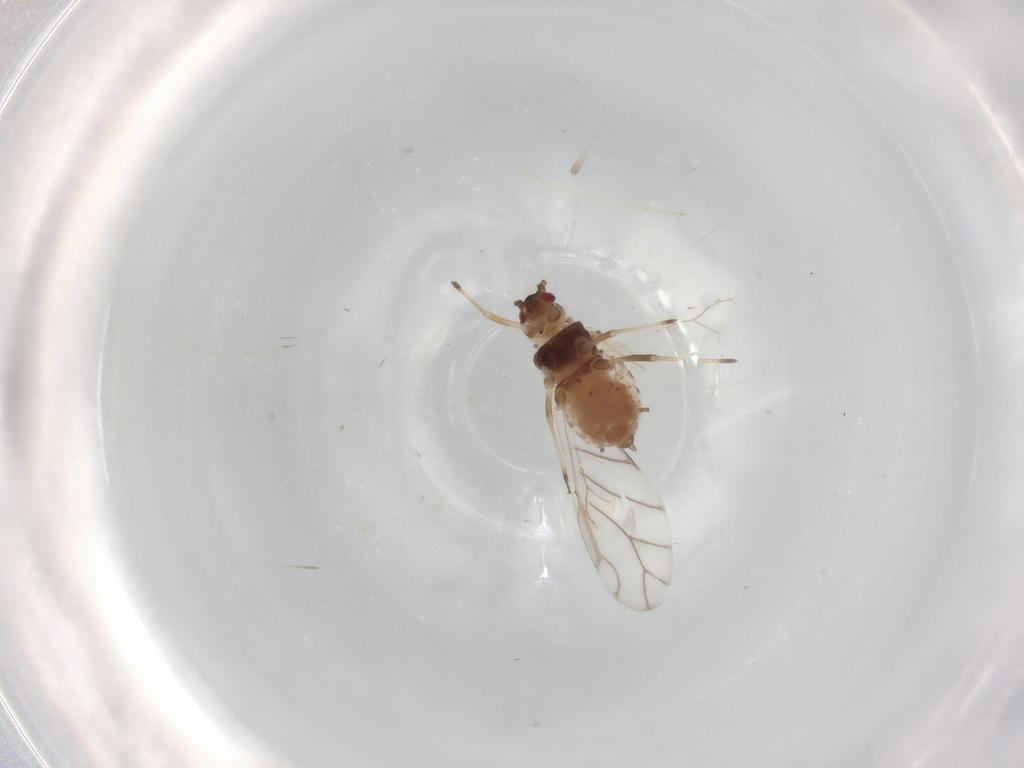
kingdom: Animalia
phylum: Arthropoda
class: Insecta
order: Hemiptera
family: Aphididae
